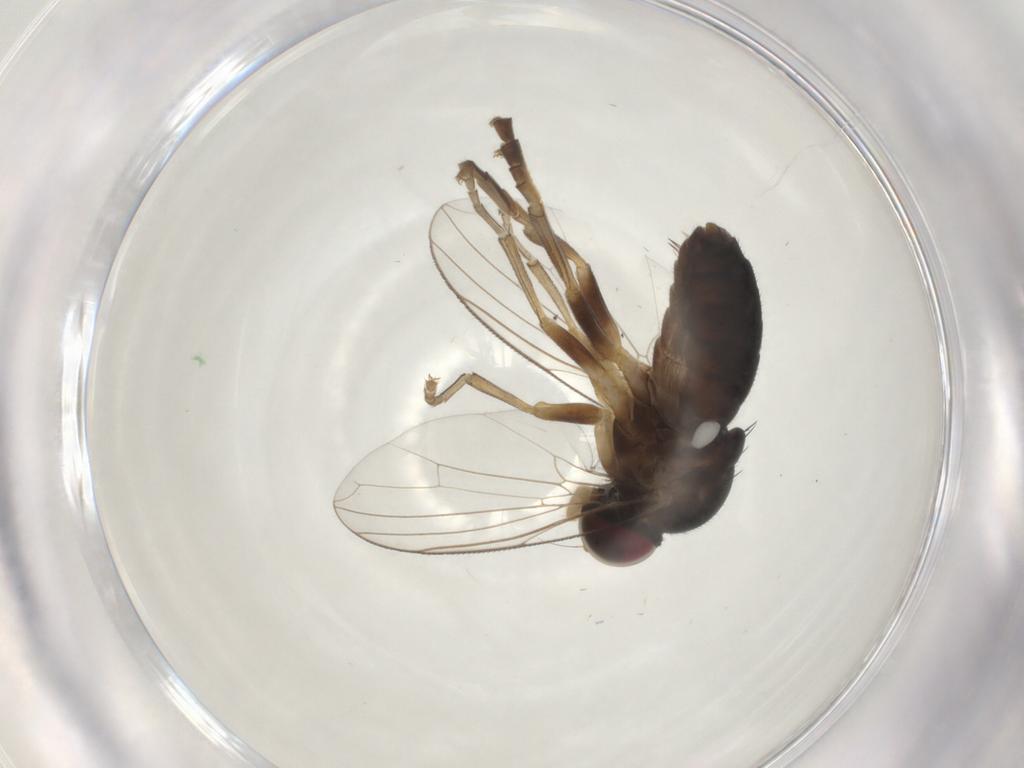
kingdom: Animalia
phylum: Arthropoda
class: Insecta
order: Diptera
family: Platypezidae
